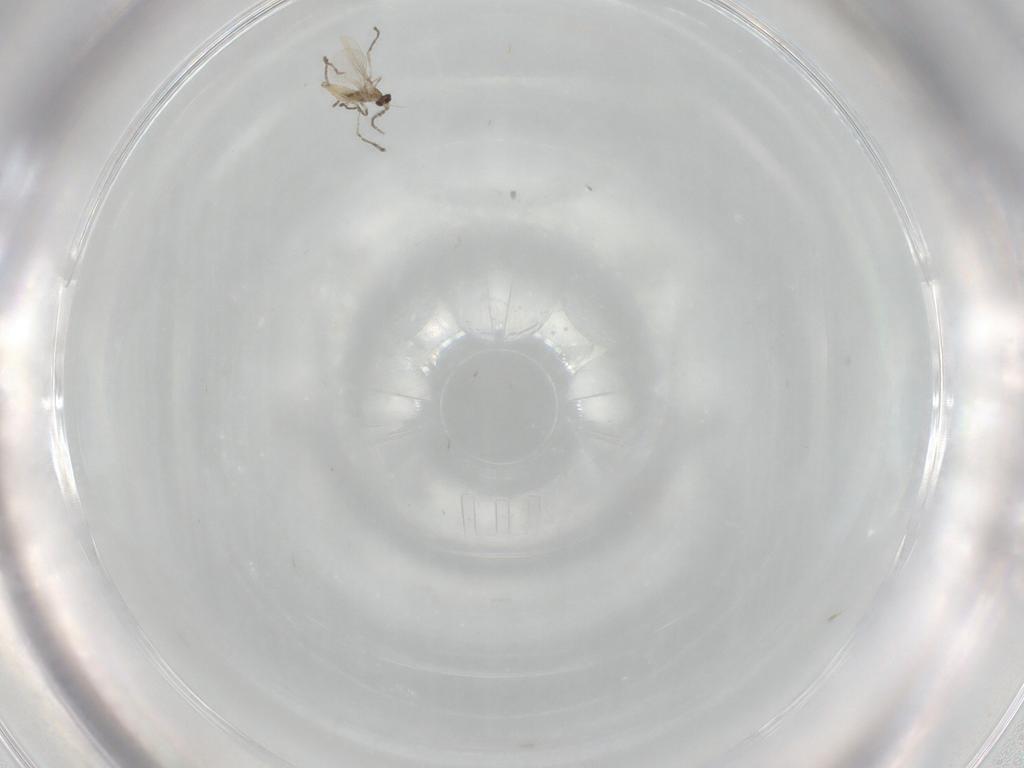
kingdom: Animalia
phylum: Arthropoda
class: Insecta
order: Diptera
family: Cecidomyiidae
